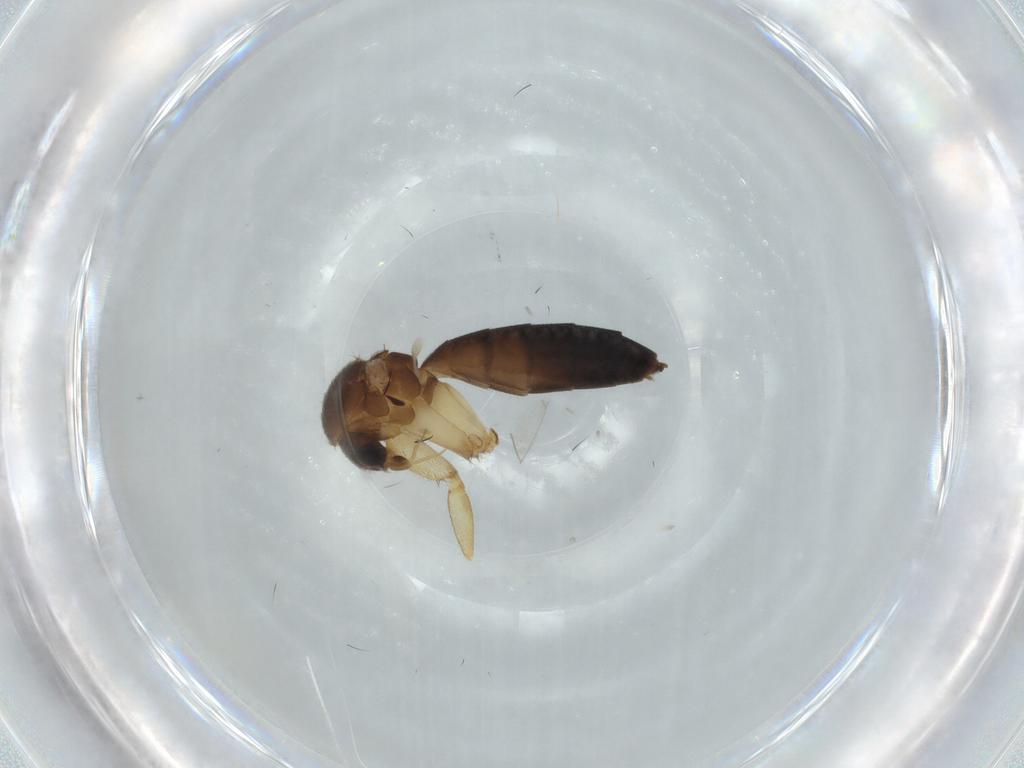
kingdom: Animalia
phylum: Arthropoda
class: Insecta
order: Diptera
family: Mycetophilidae
